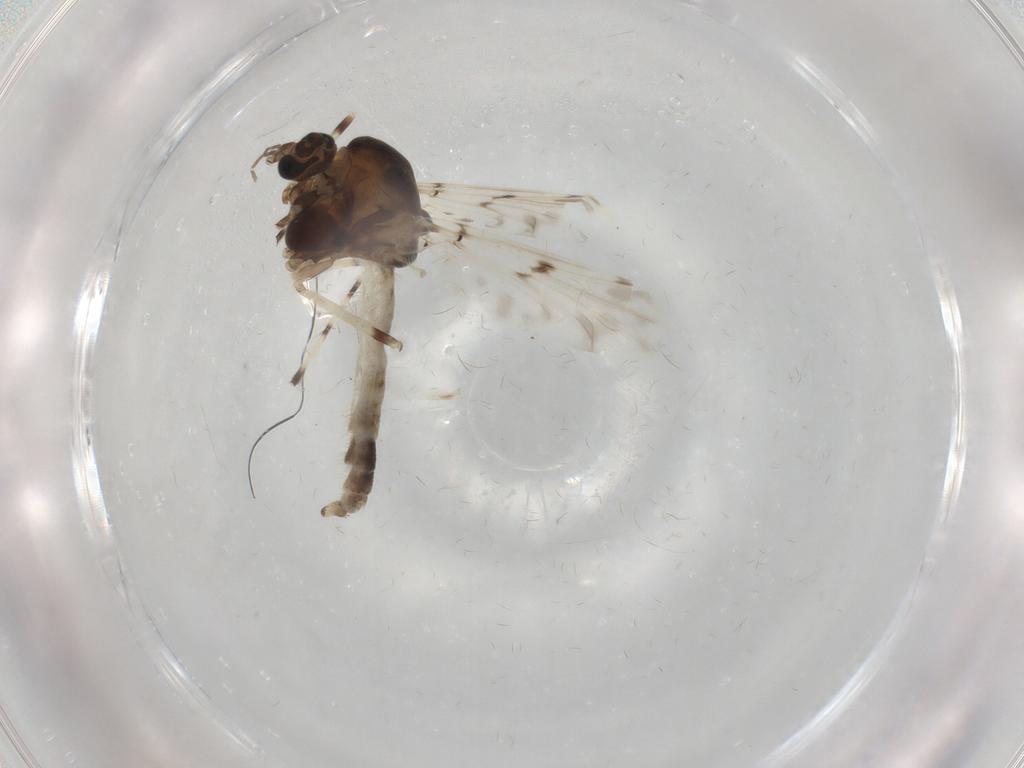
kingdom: Animalia
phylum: Arthropoda
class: Insecta
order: Diptera
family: Chironomidae
